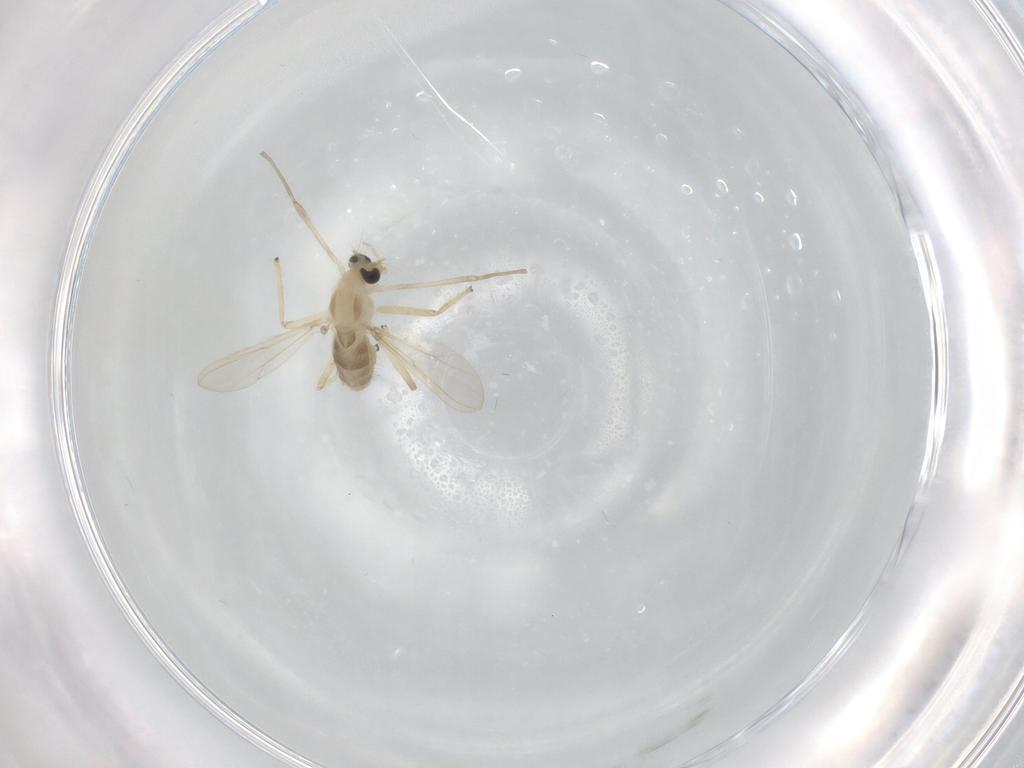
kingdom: Animalia
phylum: Arthropoda
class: Insecta
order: Diptera
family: Chironomidae
